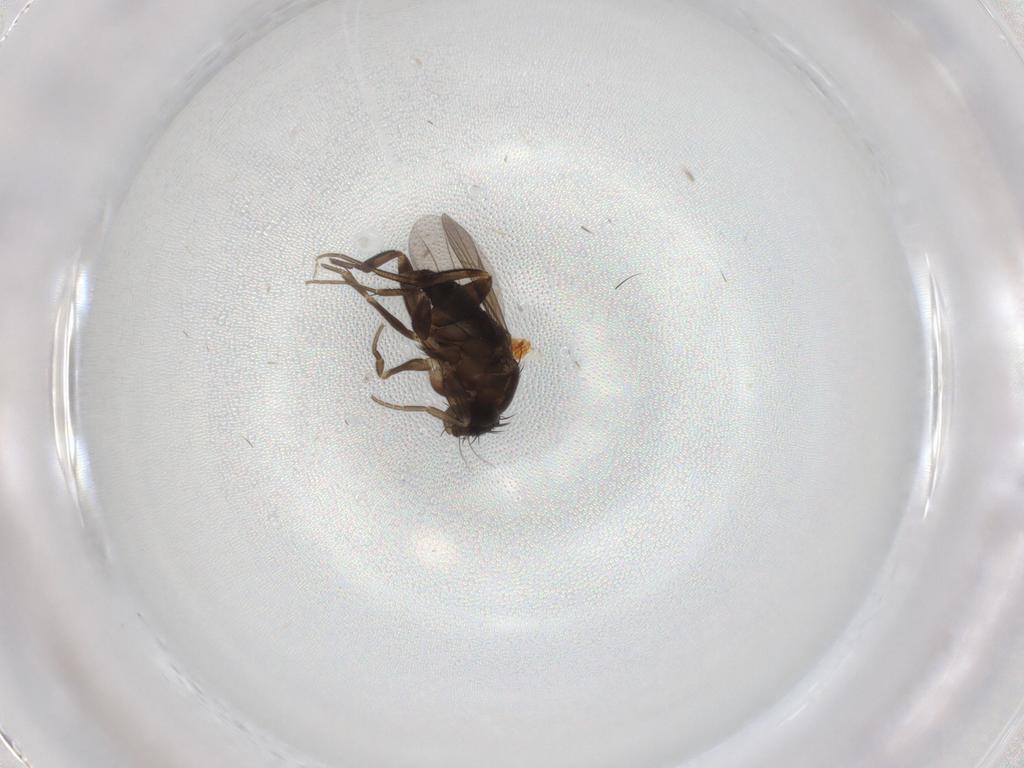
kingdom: Animalia
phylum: Arthropoda
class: Insecta
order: Diptera
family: Phoridae
